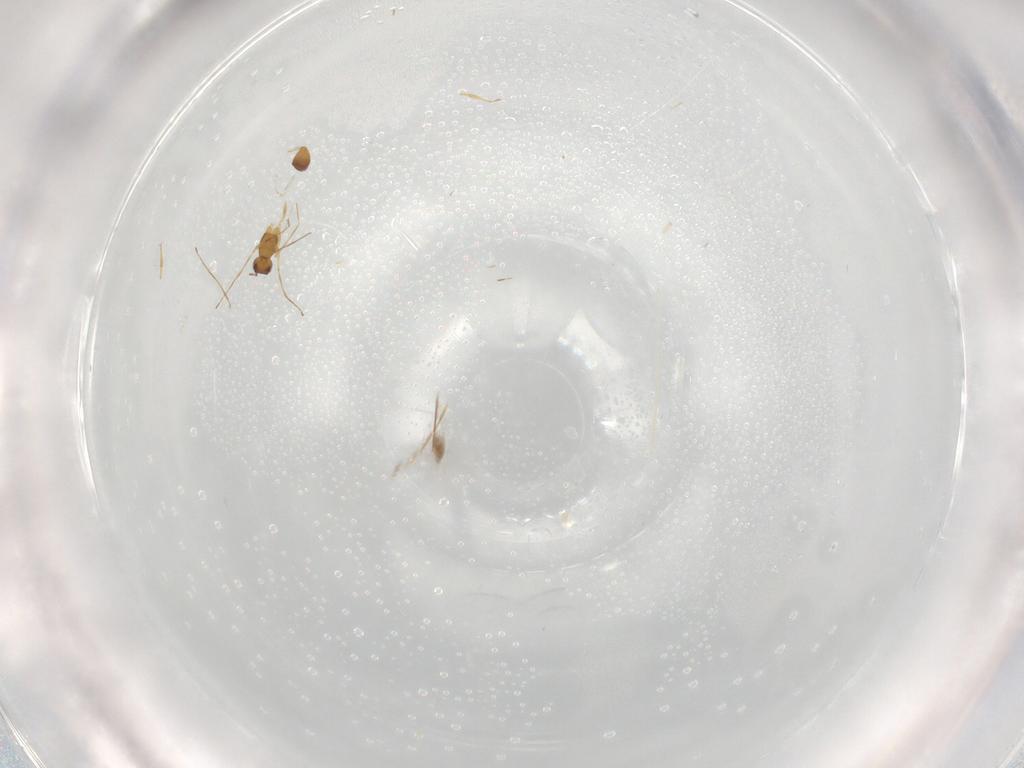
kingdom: Animalia
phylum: Arthropoda
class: Insecta
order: Hymenoptera
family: Mymaridae
